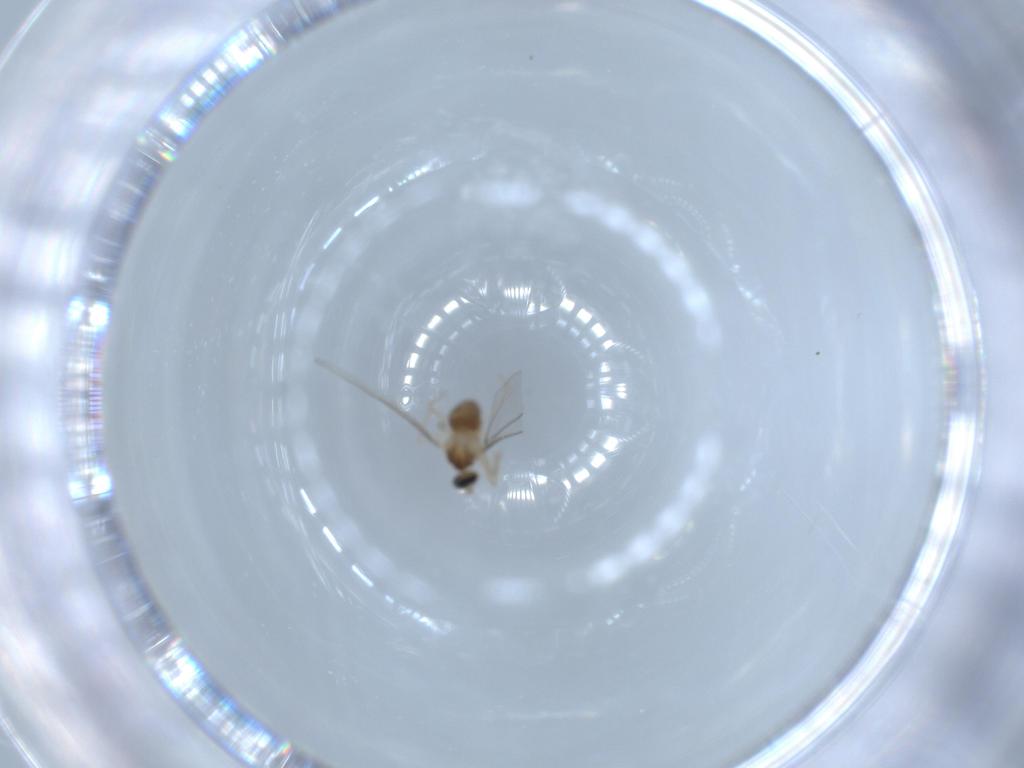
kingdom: Animalia
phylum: Arthropoda
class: Insecta
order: Diptera
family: Cecidomyiidae
